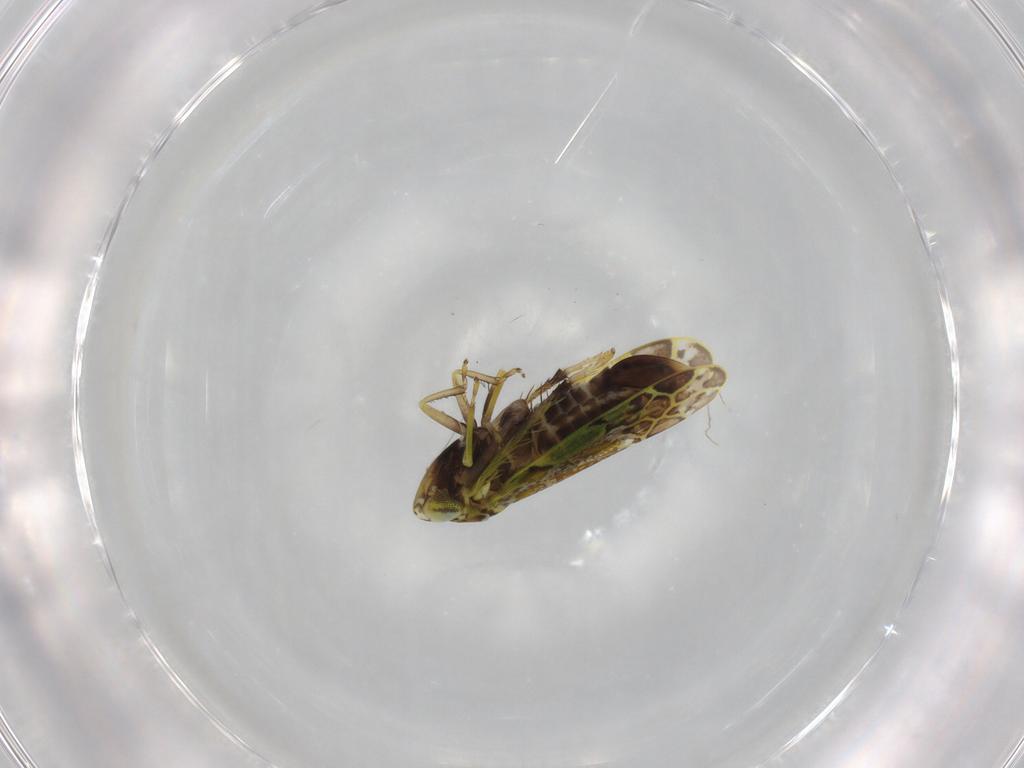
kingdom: Animalia
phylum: Arthropoda
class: Insecta
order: Hemiptera
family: Cicadellidae
